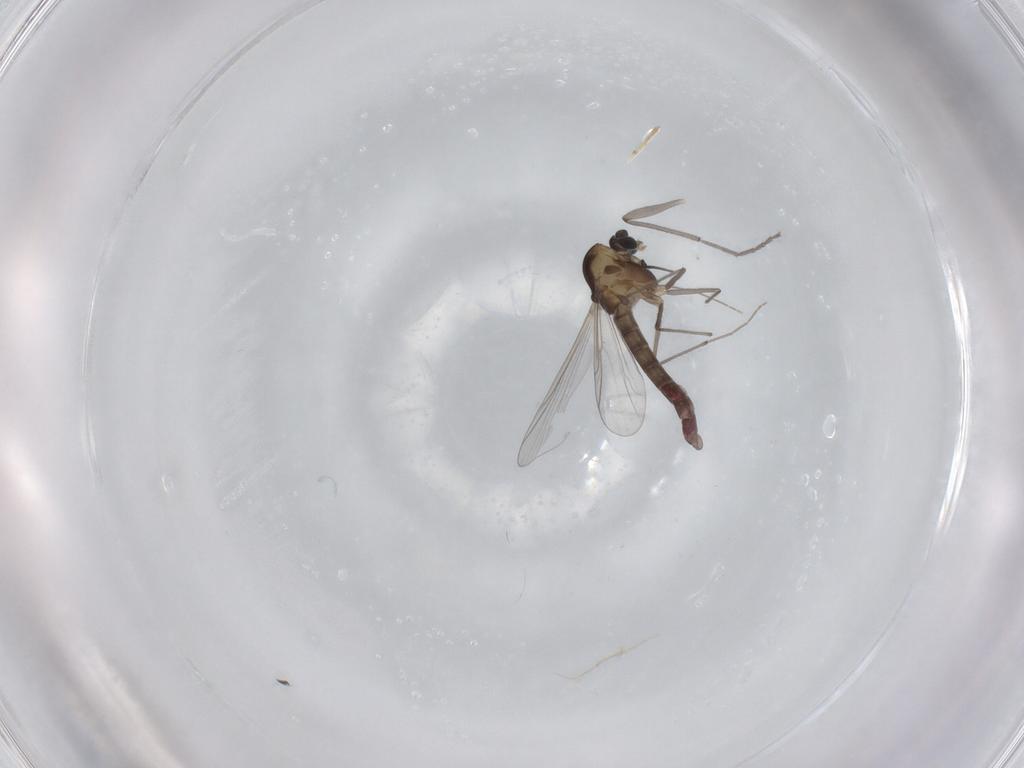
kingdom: Animalia
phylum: Arthropoda
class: Insecta
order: Diptera
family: Chironomidae
